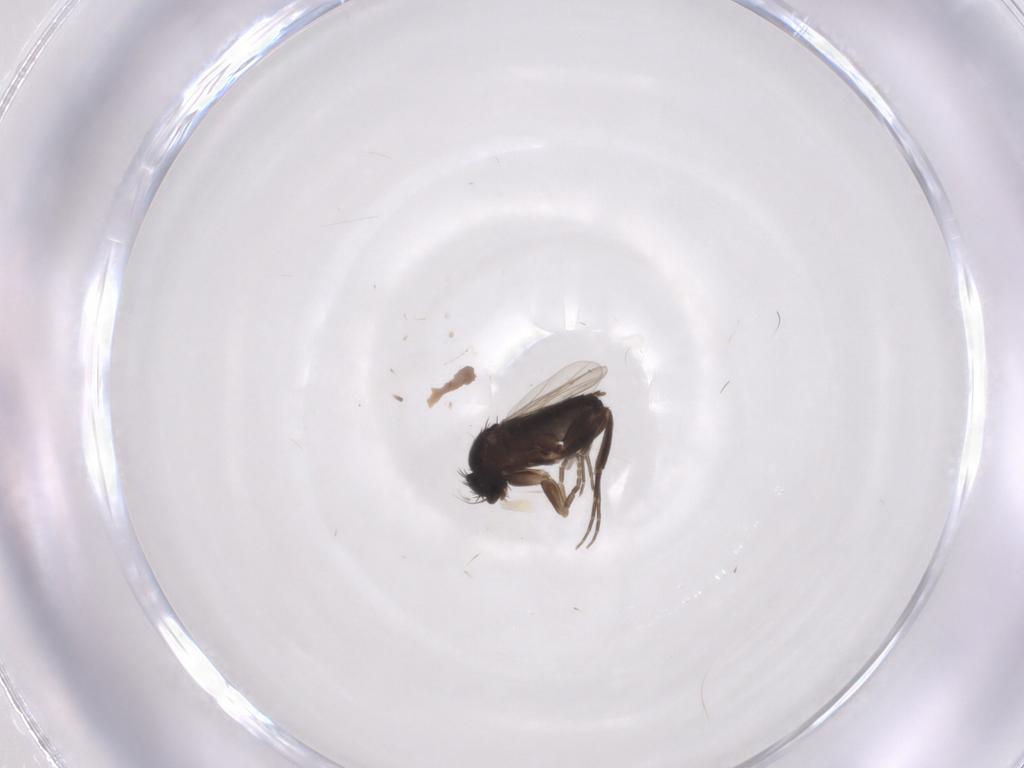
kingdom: Animalia
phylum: Arthropoda
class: Insecta
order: Diptera
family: Phoridae
